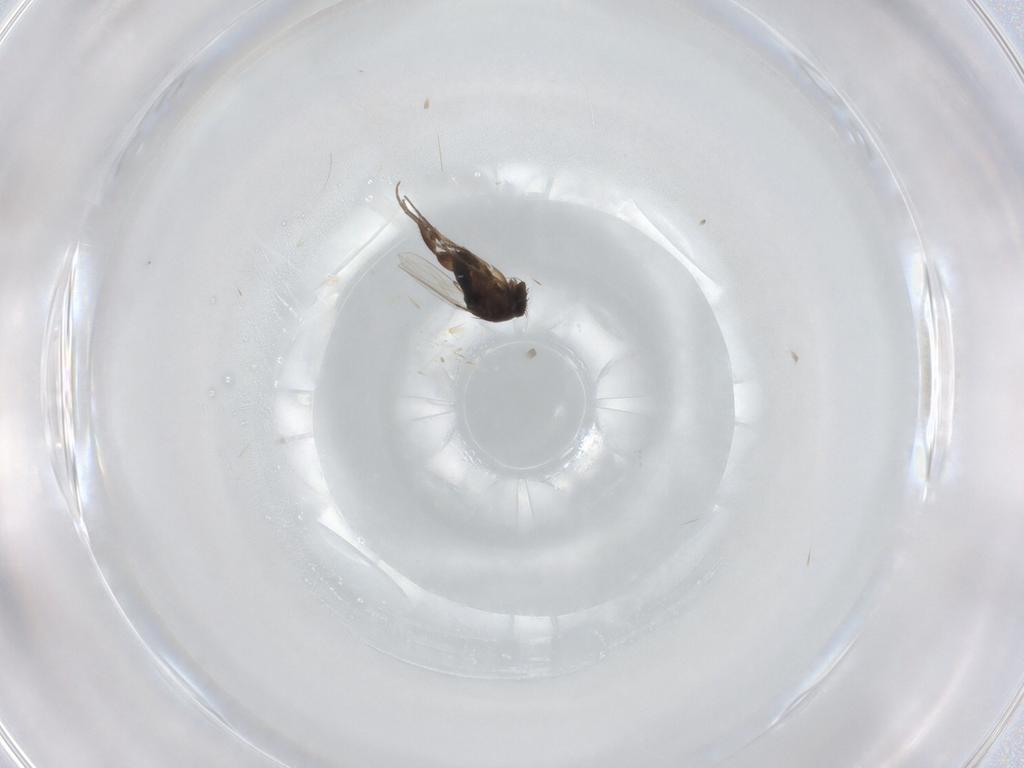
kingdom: Animalia
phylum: Arthropoda
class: Insecta
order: Diptera
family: Phoridae
